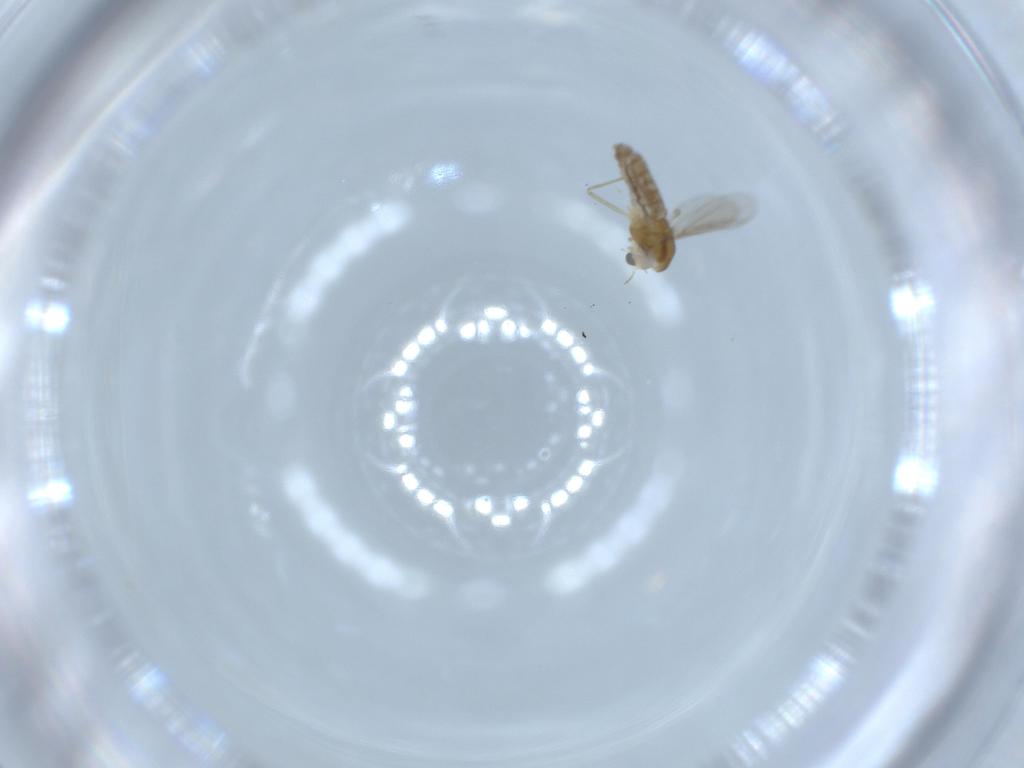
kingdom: Animalia
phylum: Arthropoda
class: Insecta
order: Diptera
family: Chironomidae
